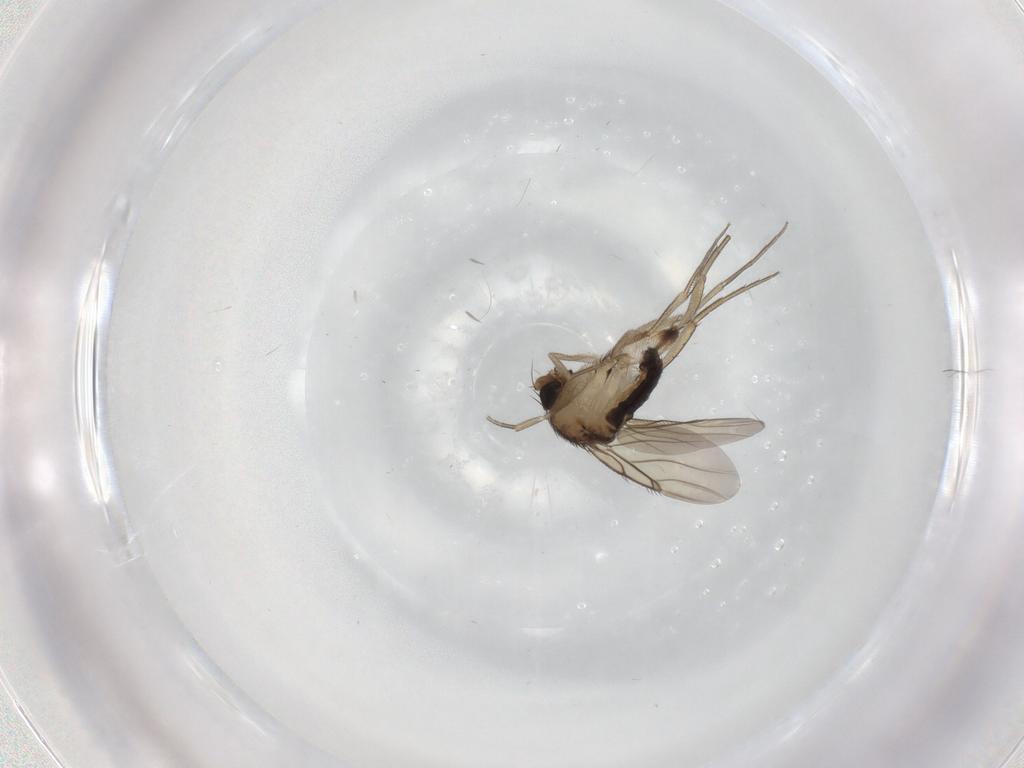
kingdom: Animalia
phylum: Arthropoda
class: Insecta
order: Diptera
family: Phoridae
